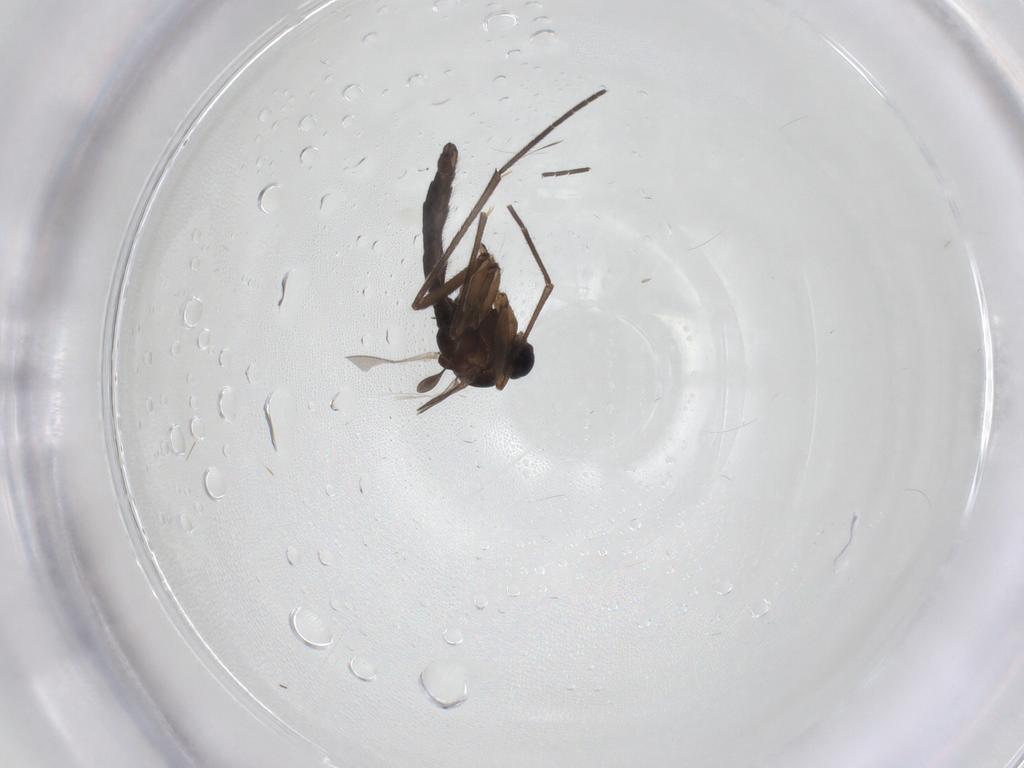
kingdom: Animalia
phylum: Arthropoda
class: Insecta
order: Diptera
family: Sciaridae
